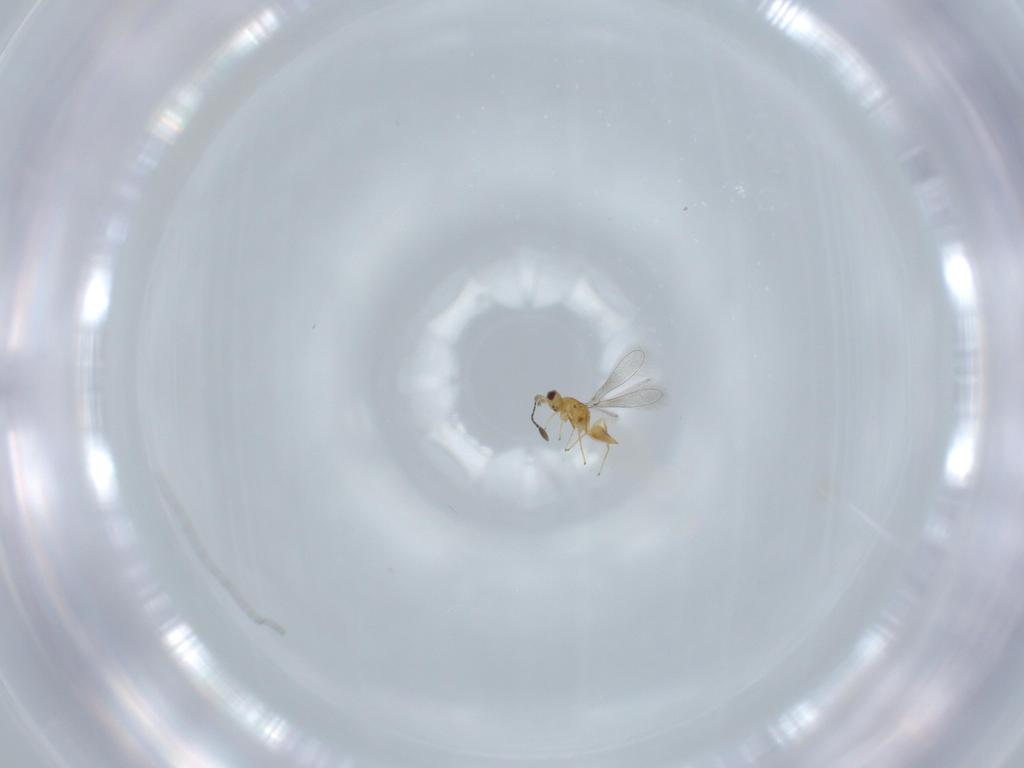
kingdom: Animalia
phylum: Arthropoda
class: Insecta
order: Hymenoptera
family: Mymaridae
